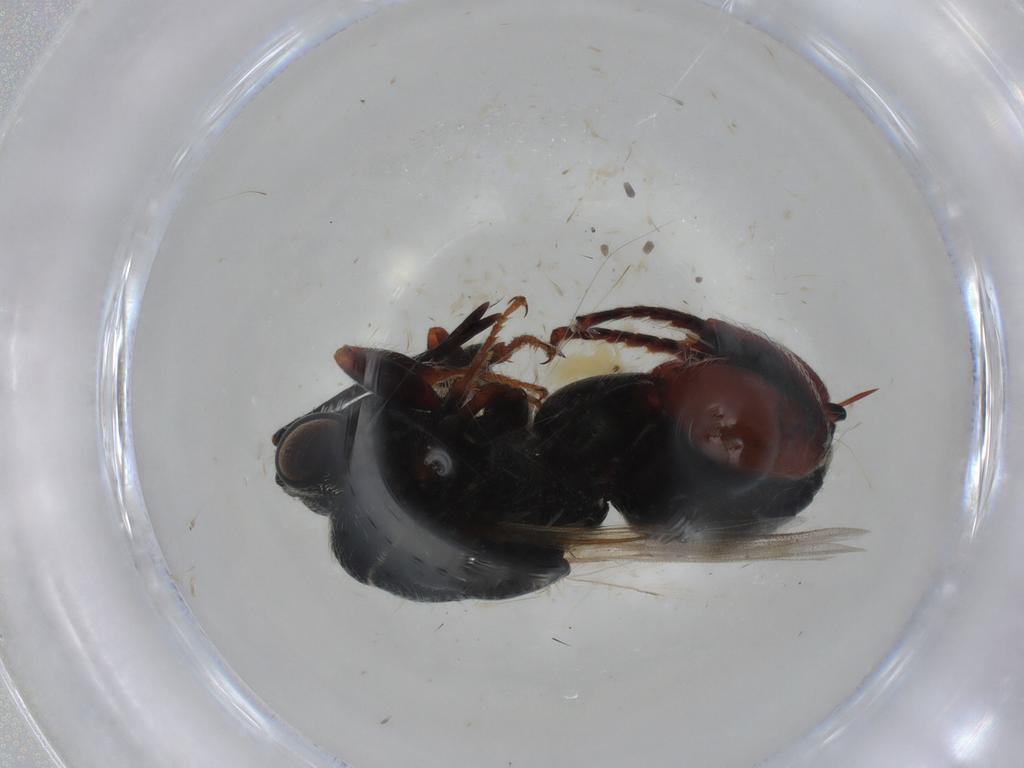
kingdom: Animalia
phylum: Arthropoda
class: Insecta
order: Hymenoptera
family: Chalcididae
